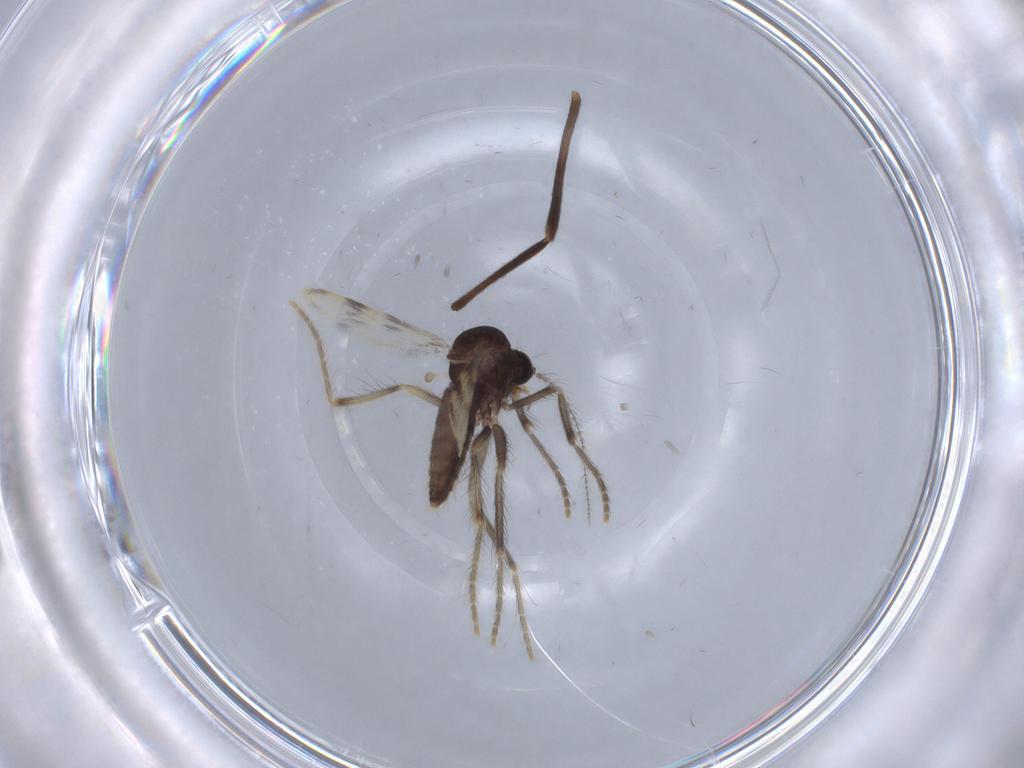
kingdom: Animalia
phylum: Arthropoda
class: Insecta
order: Diptera
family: Corethrellidae
